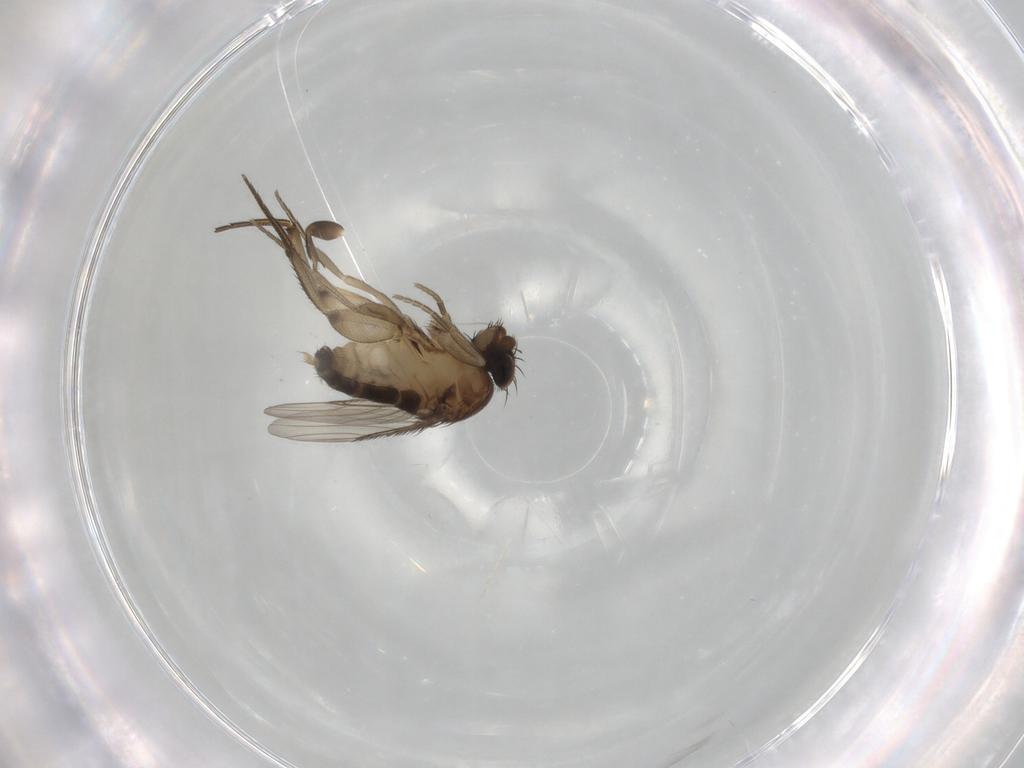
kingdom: Animalia
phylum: Arthropoda
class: Insecta
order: Diptera
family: Phoridae
